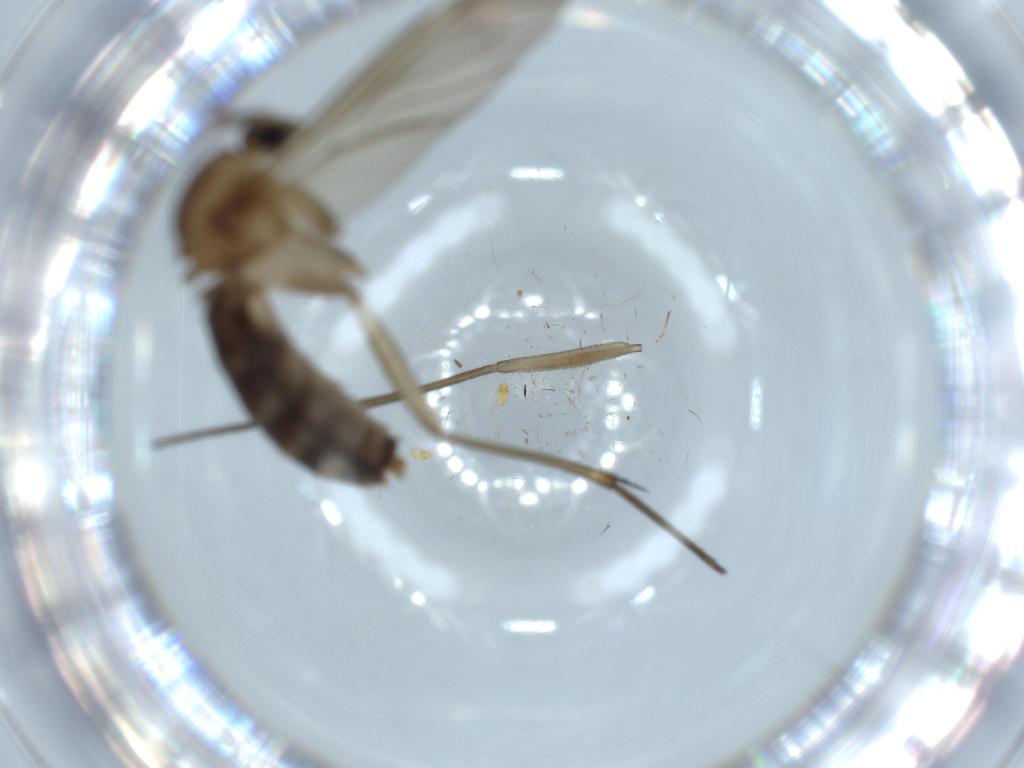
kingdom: Animalia
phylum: Arthropoda
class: Insecta
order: Diptera
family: Mycetophilidae
